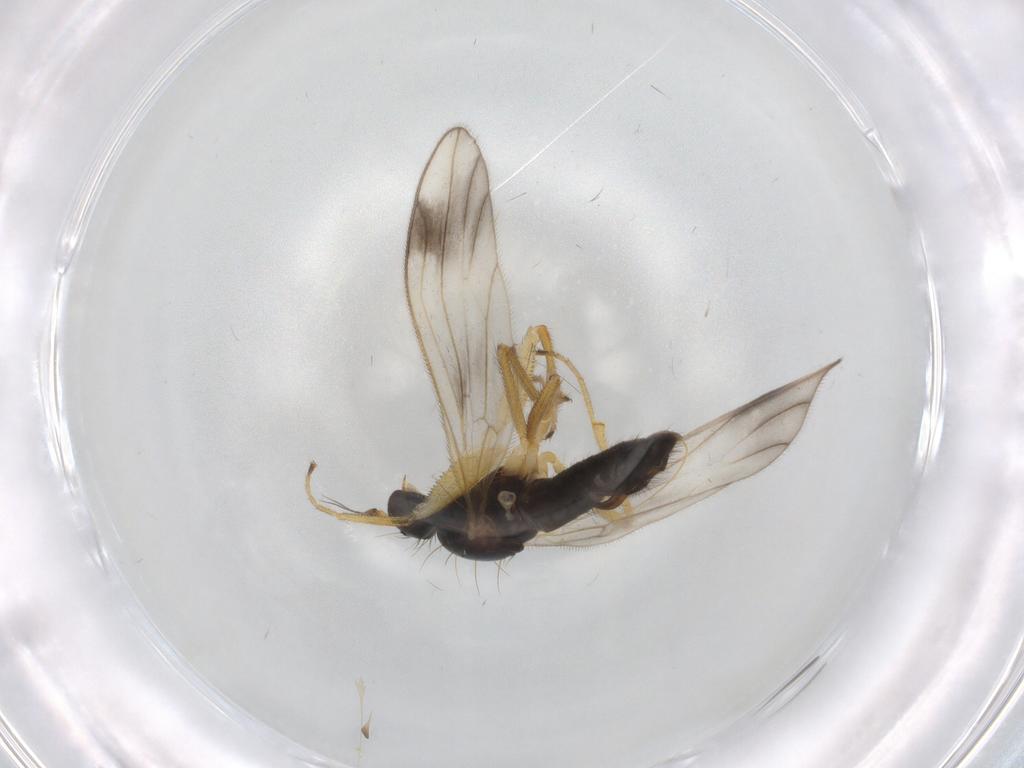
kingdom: Animalia
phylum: Arthropoda
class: Insecta
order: Diptera
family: Empididae
